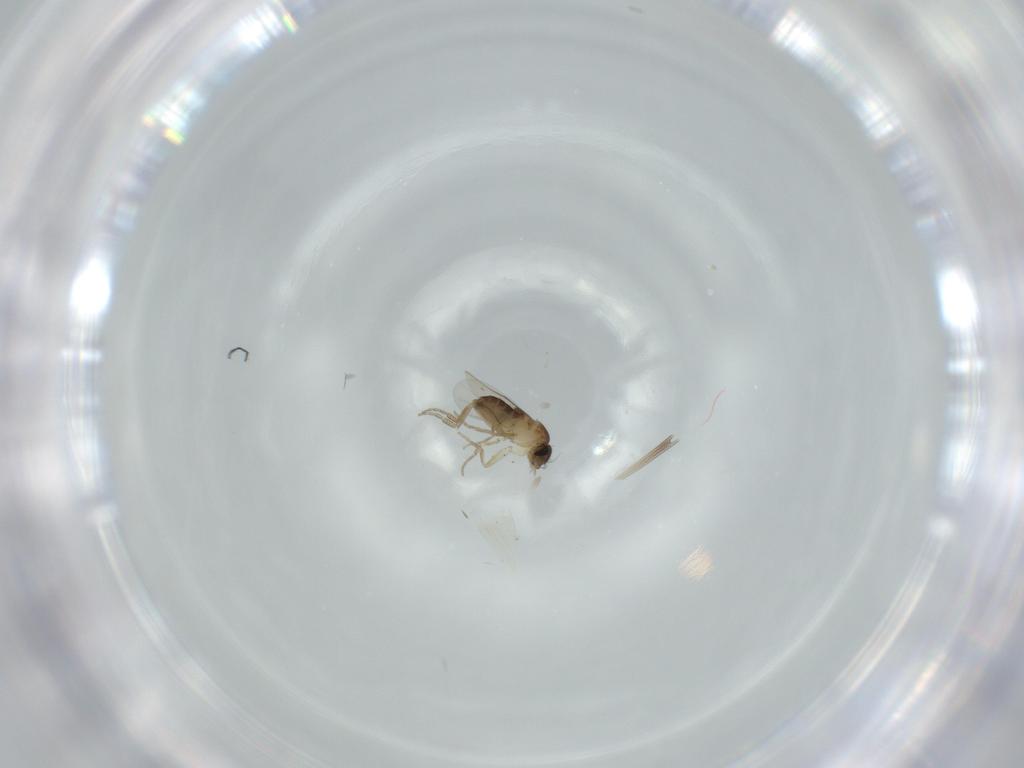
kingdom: Animalia
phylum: Arthropoda
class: Insecta
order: Diptera
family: Phoridae
